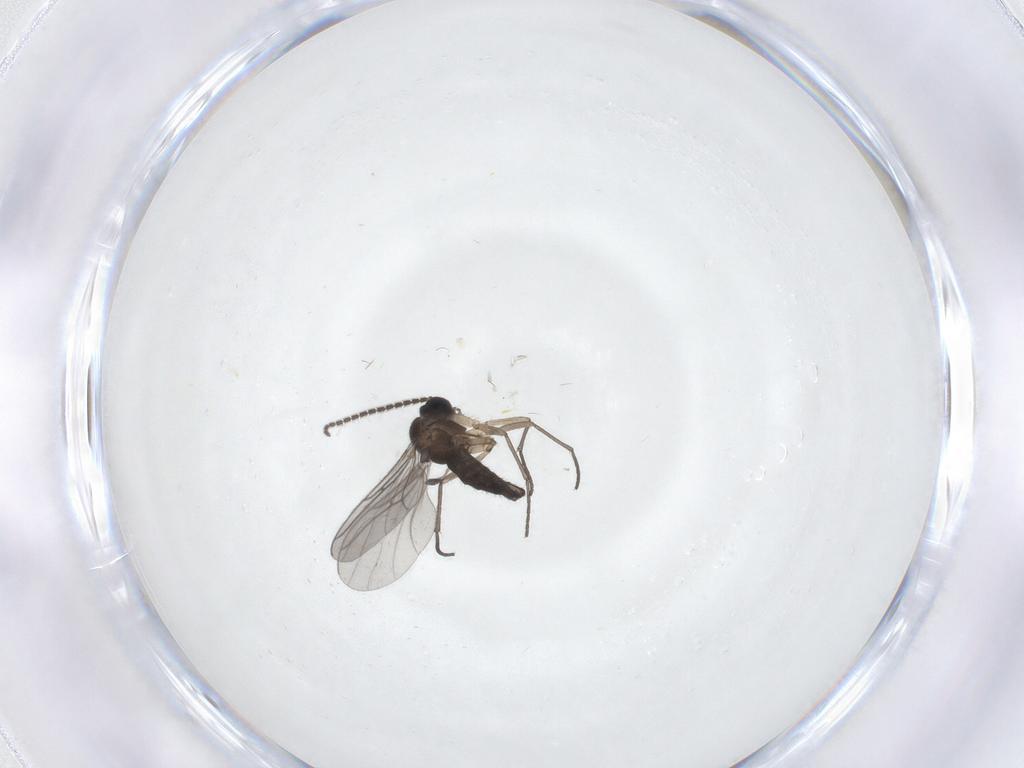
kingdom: Animalia
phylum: Arthropoda
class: Insecta
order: Diptera
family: Sciaridae
